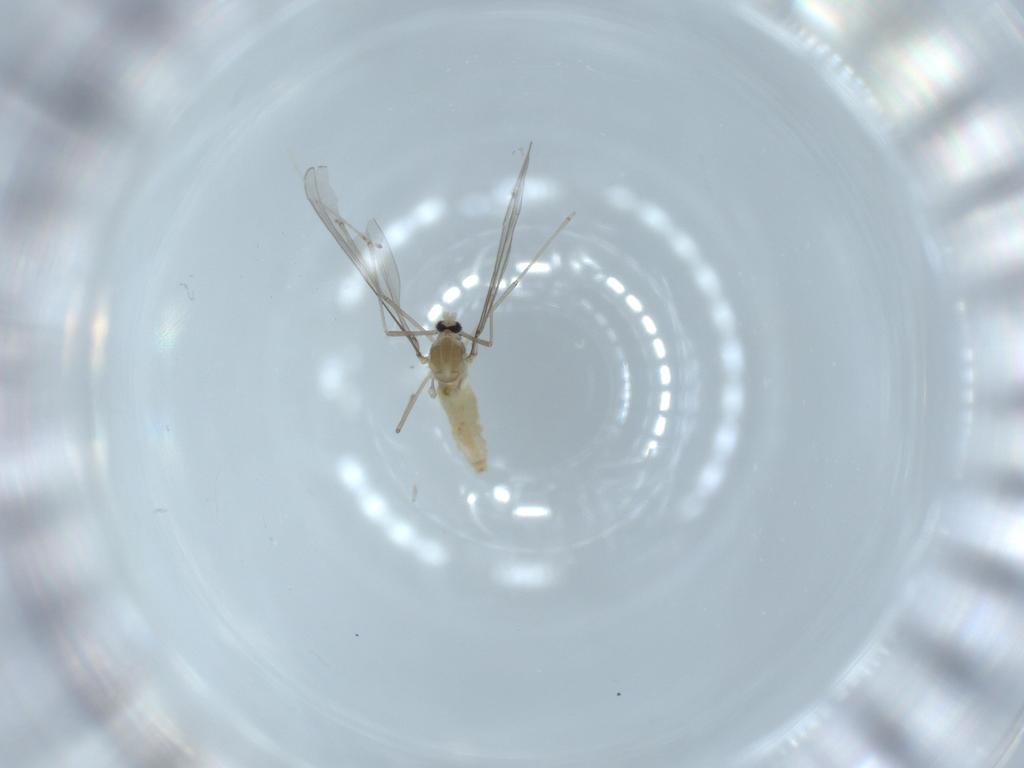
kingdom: Animalia
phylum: Arthropoda
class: Insecta
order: Diptera
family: Cecidomyiidae
